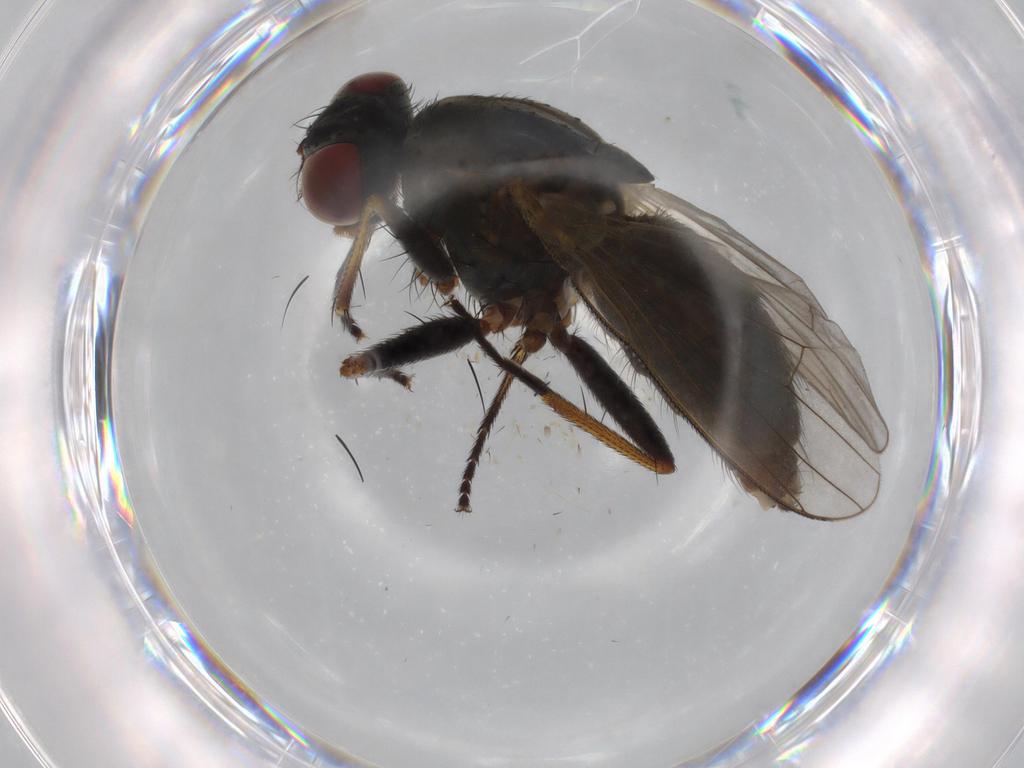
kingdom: Animalia
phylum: Arthropoda
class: Insecta
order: Diptera
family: Muscidae
